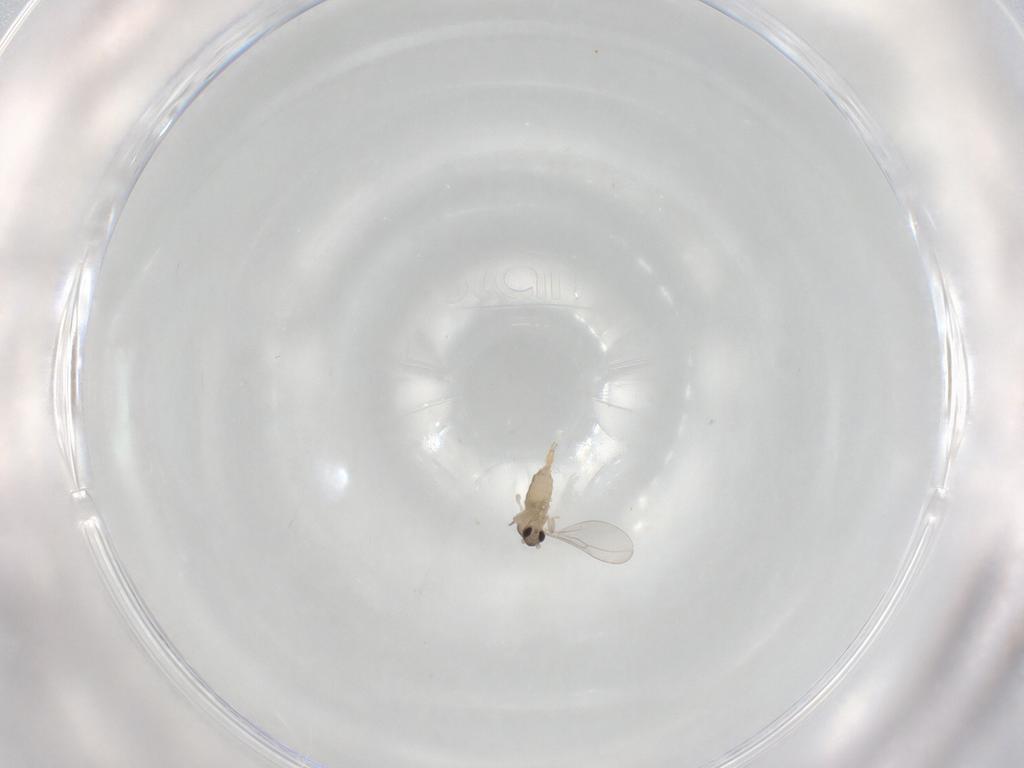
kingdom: Animalia
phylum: Arthropoda
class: Insecta
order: Diptera
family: Cecidomyiidae
